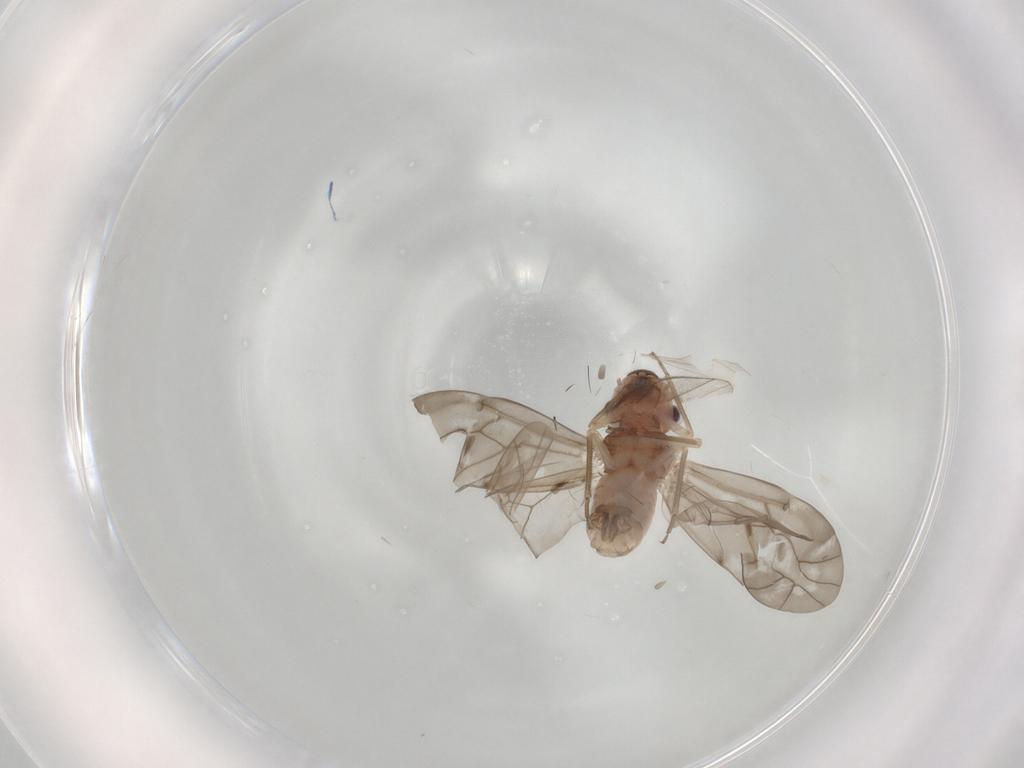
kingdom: Animalia
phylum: Arthropoda
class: Insecta
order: Psocodea
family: Peripsocidae
